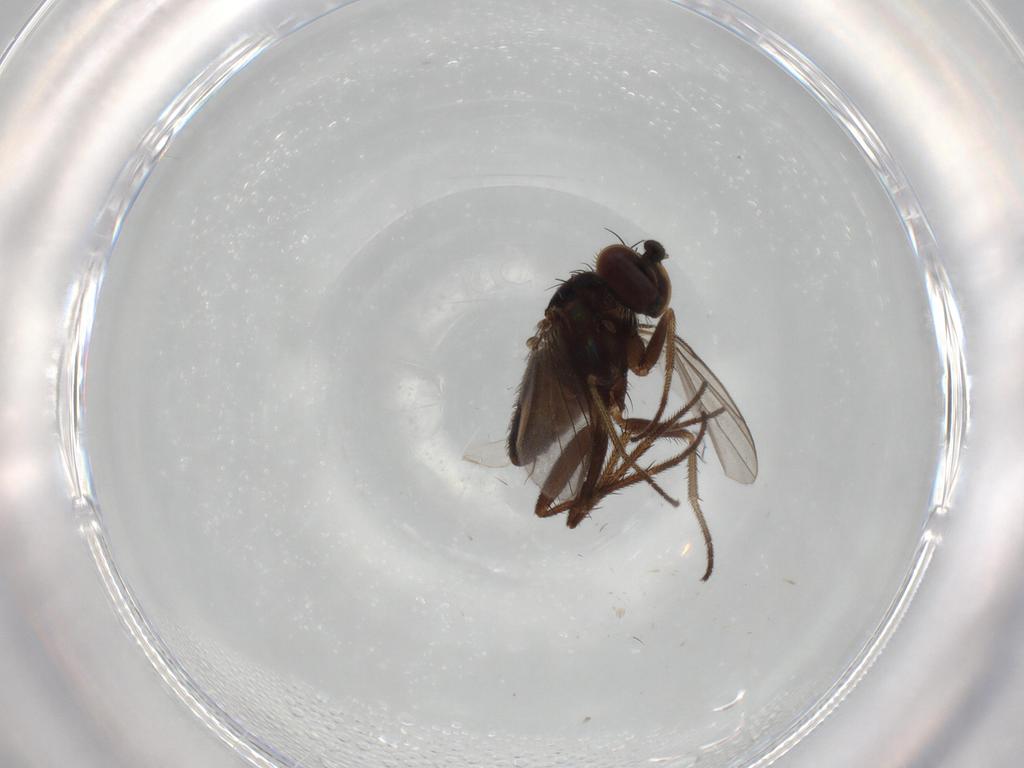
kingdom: Animalia
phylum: Arthropoda
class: Insecta
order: Diptera
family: Dolichopodidae
